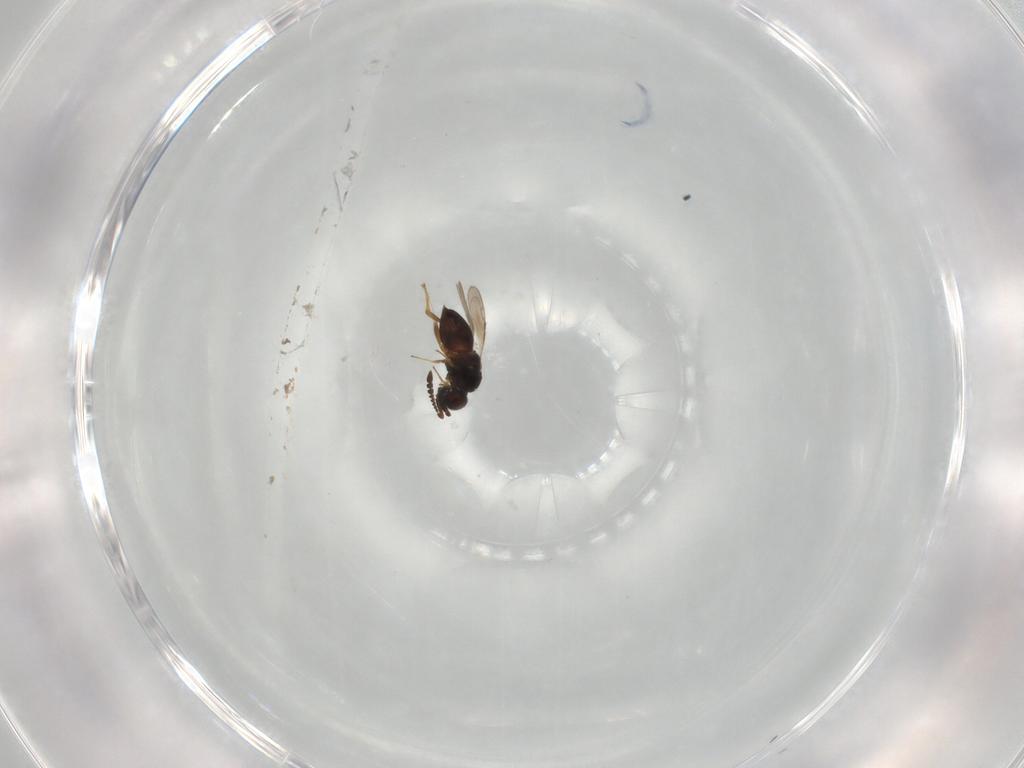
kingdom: Animalia
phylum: Arthropoda
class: Insecta
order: Hymenoptera
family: Ceraphronidae
